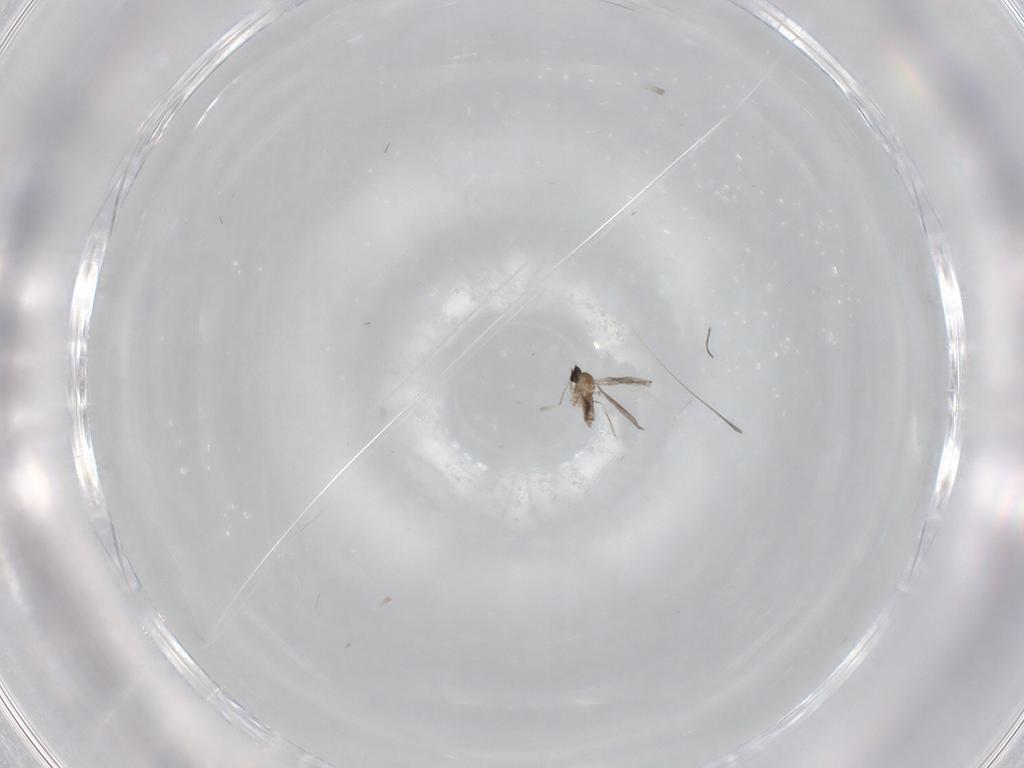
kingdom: Animalia
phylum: Arthropoda
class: Insecta
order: Diptera
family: Cecidomyiidae
